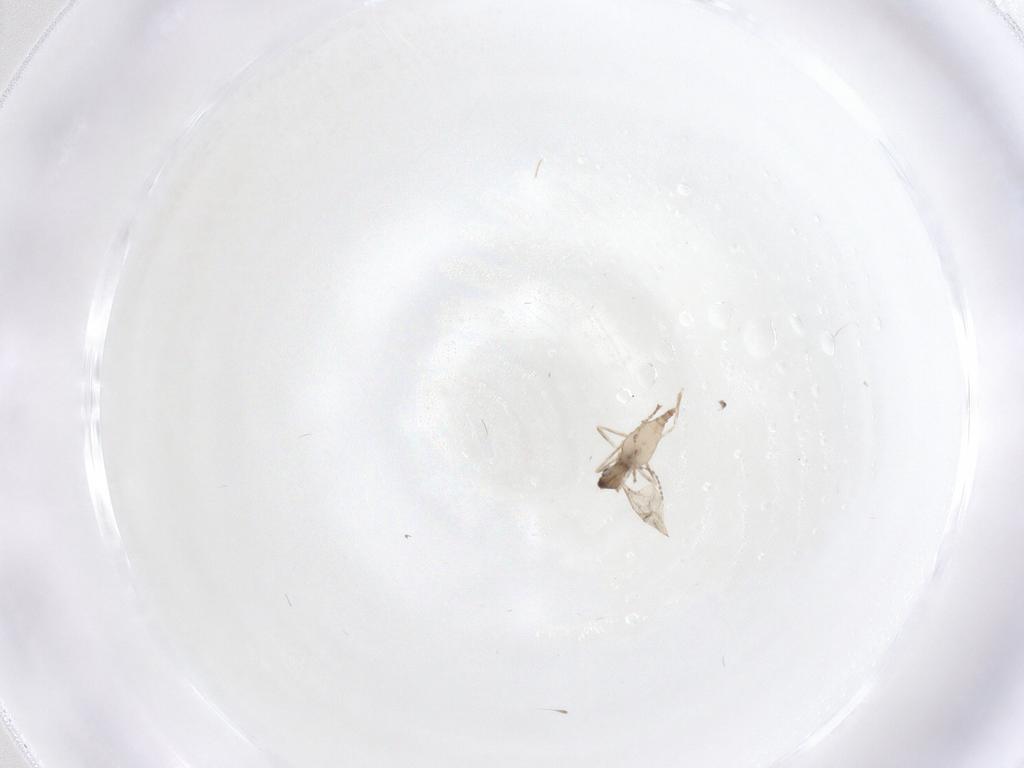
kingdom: Animalia
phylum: Arthropoda
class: Insecta
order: Diptera
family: Cecidomyiidae
